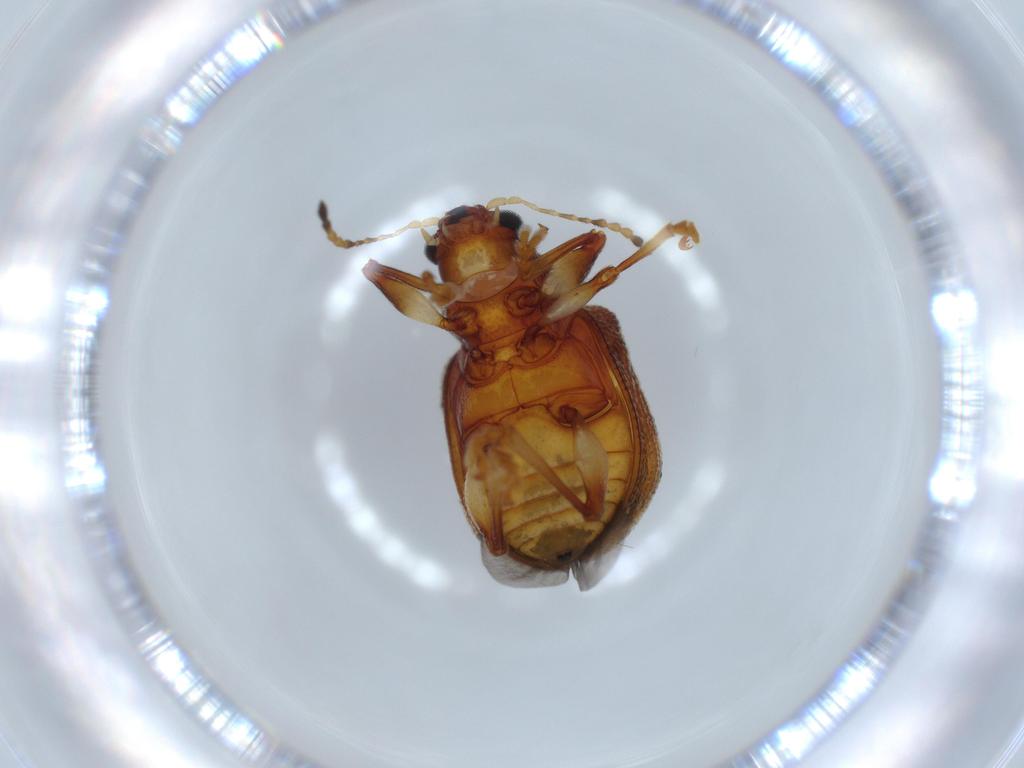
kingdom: Animalia
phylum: Arthropoda
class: Insecta
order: Coleoptera
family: Chrysomelidae
